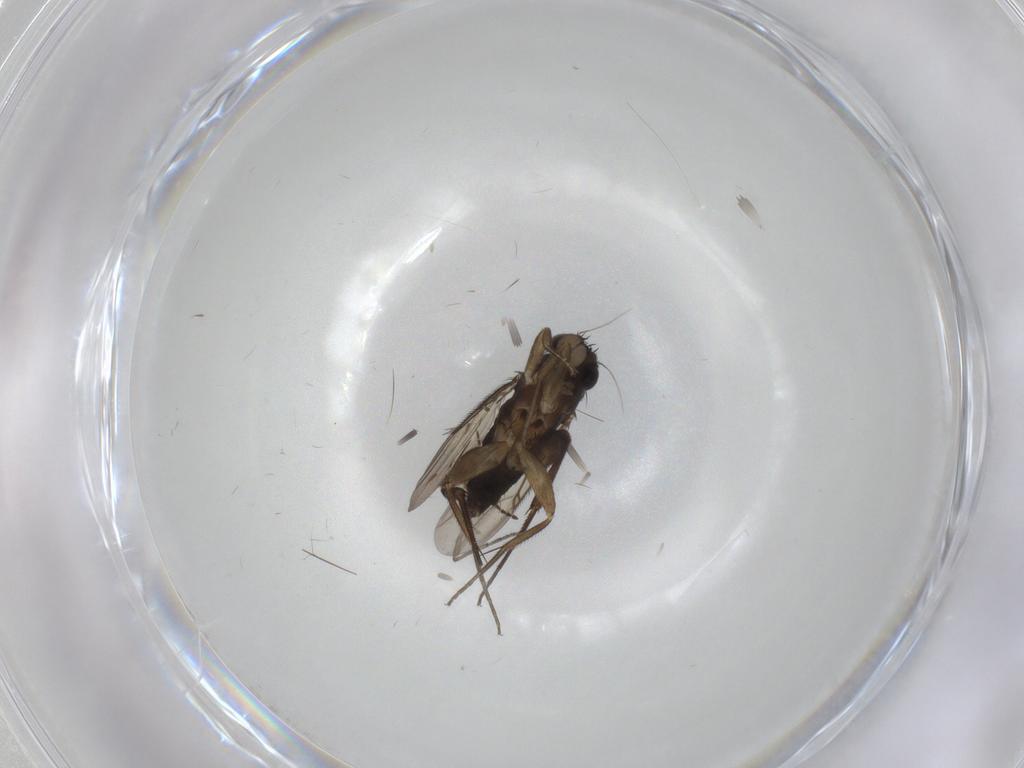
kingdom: Animalia
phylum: Arthropoda
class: Insecta
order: Diptera
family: Phoridae
